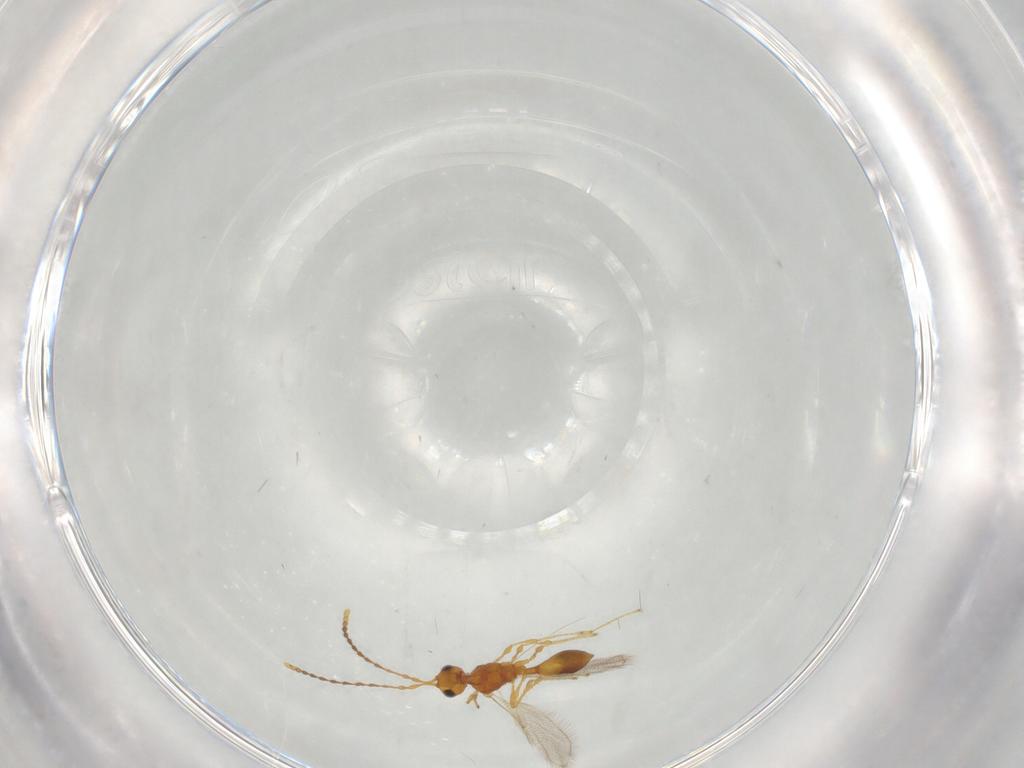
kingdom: Animalia
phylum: Arthropoda
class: Insecta
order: Hymenoptera
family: Diapriidae
